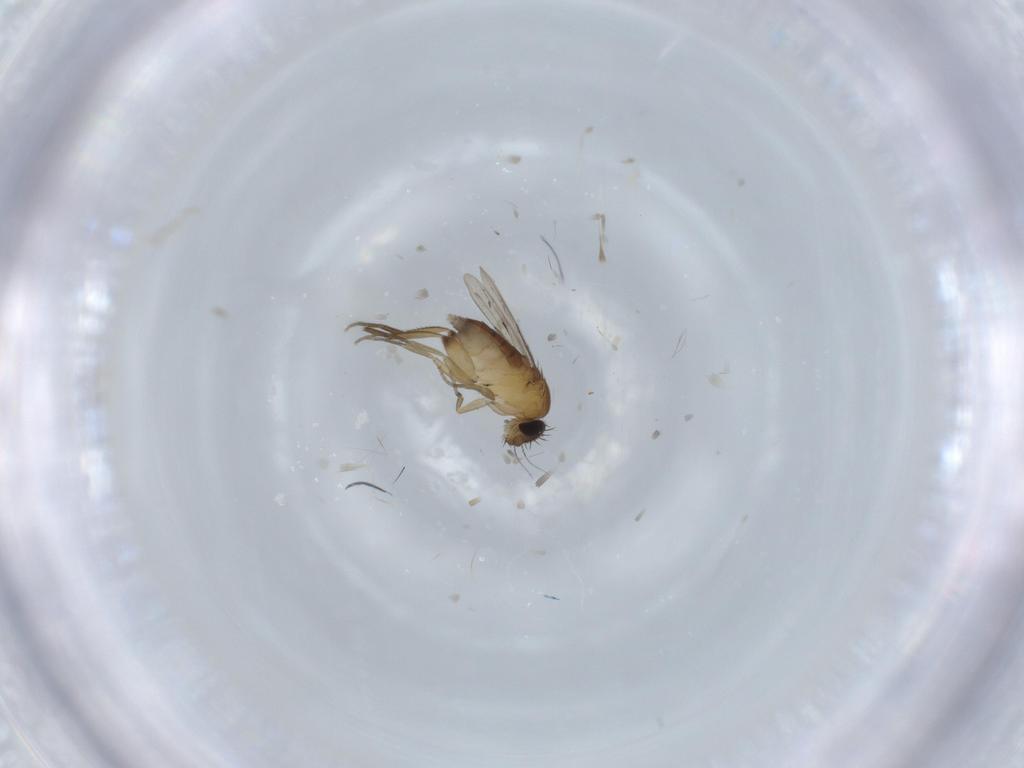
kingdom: Animalia
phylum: Arthropoda
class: Insecta
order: Diptera
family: Phoridae
